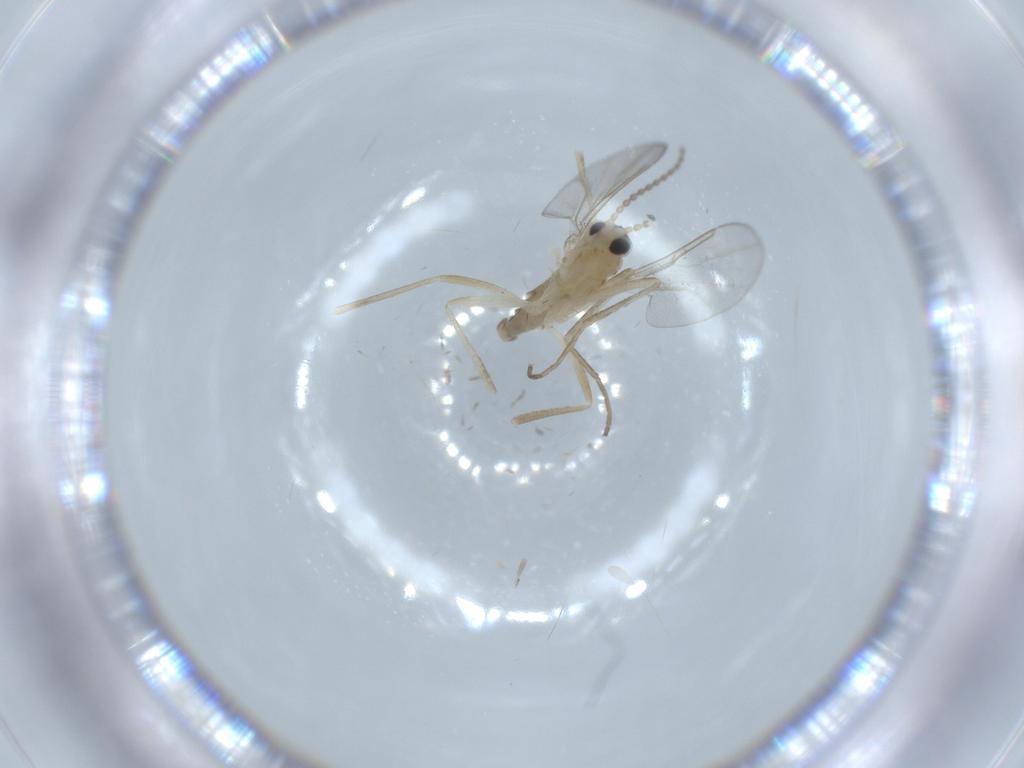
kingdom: Animalia
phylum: Arthropoda
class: Insecta
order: Diptera
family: Cecidomyiidae
